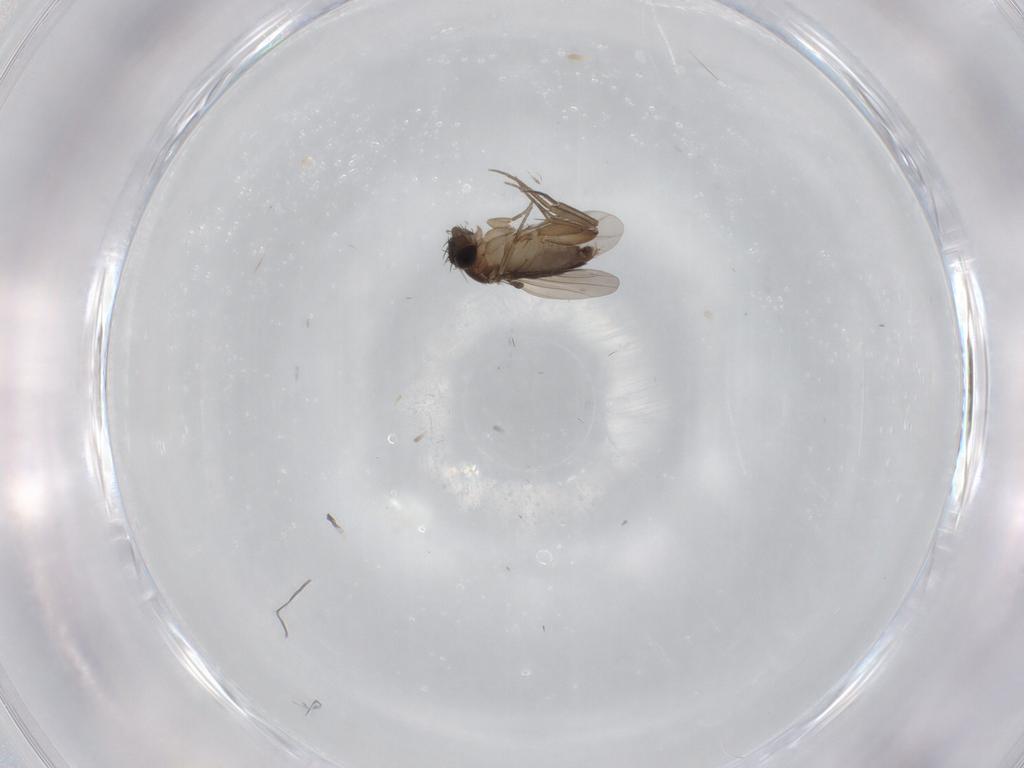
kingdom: Animalia
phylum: Arthropoda
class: Insecta
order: Diptera
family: Phoridae
